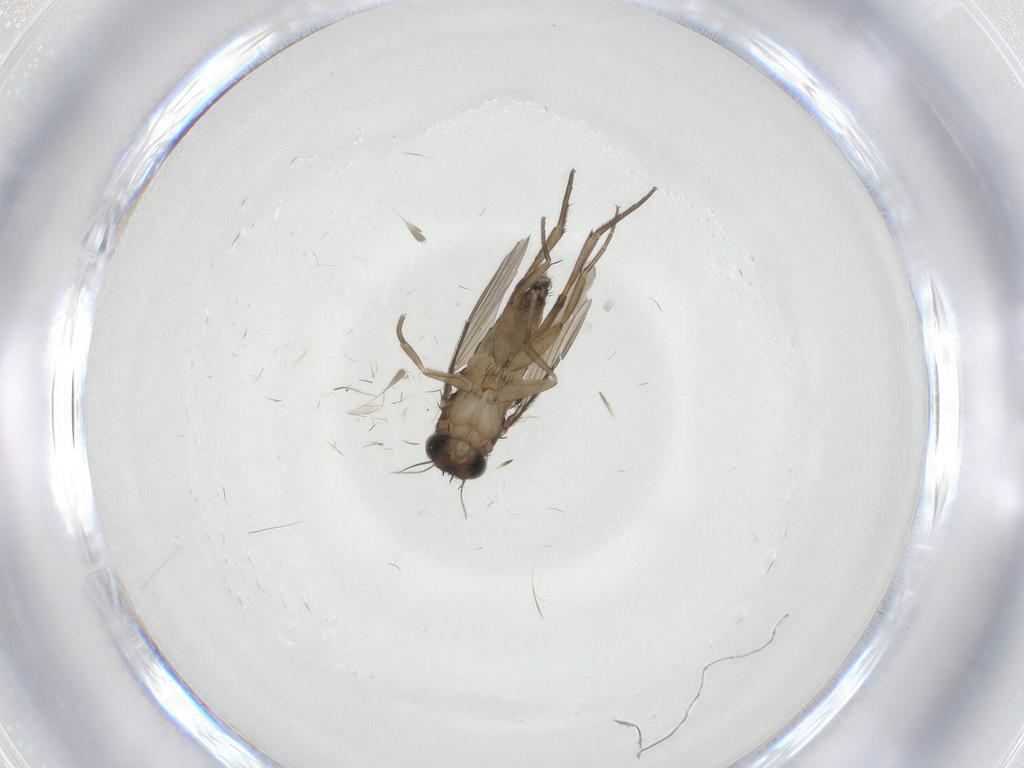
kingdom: Animalia
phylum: Arthropoda
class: Insecta
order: Diptera
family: Phoridae
